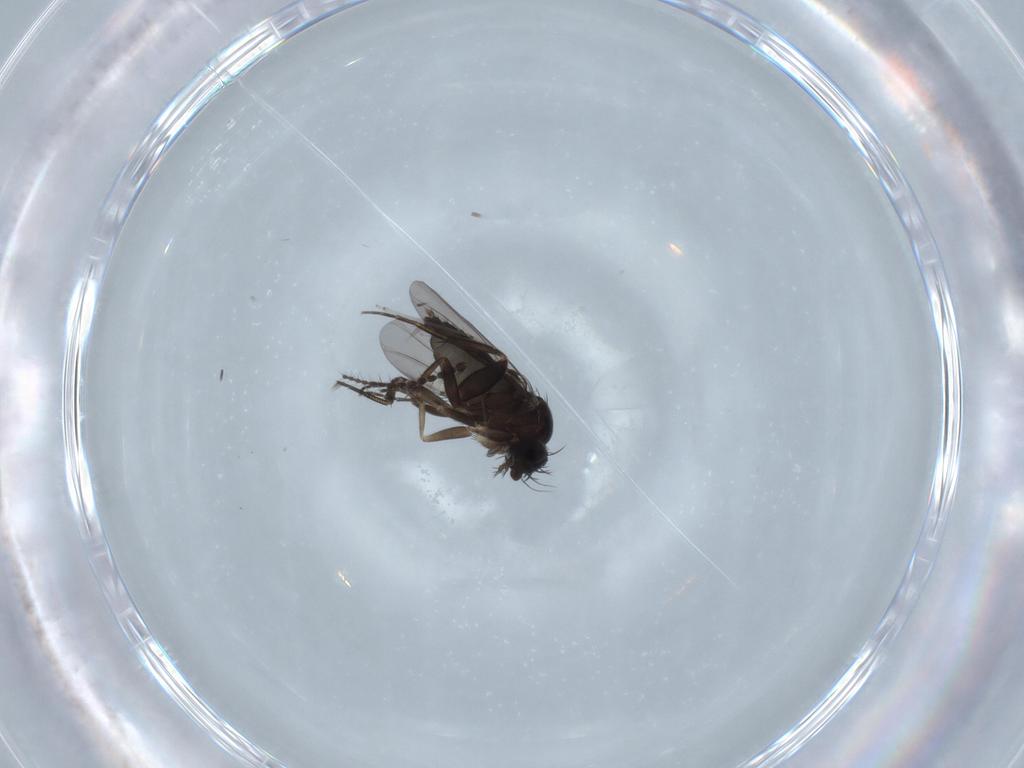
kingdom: Animalia
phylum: Arthropoda
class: Insecta
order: Diptera
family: Phoridae
